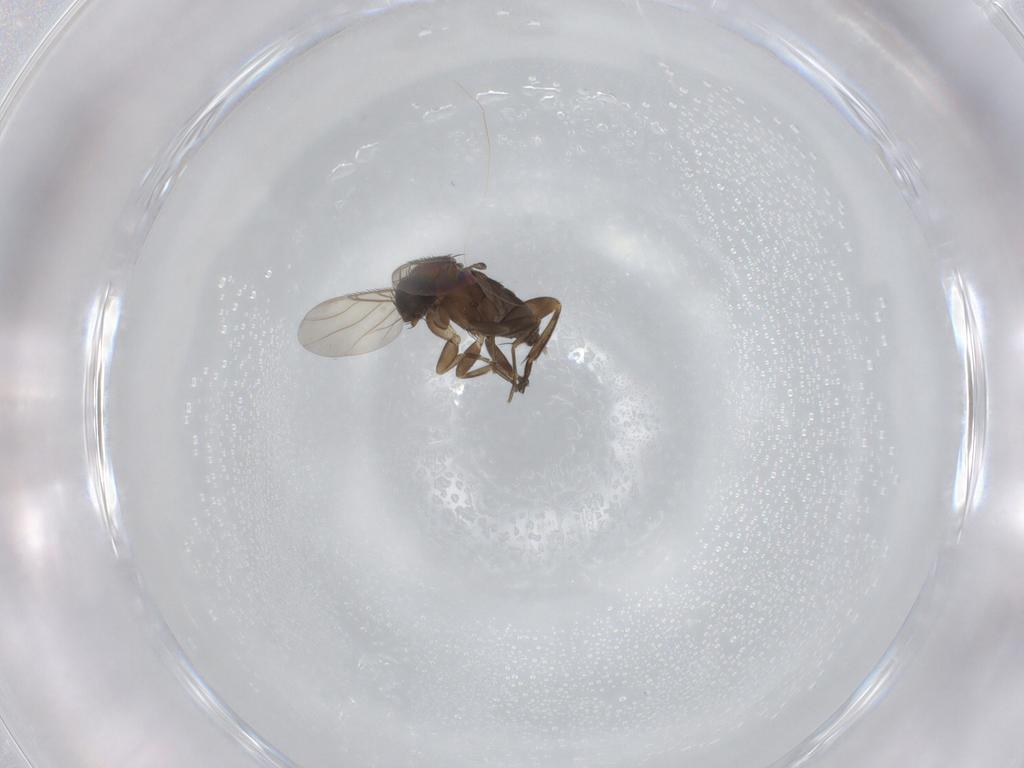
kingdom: Animalia
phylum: Arthropoda
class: Insecta
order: Diptera
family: Phoridae
